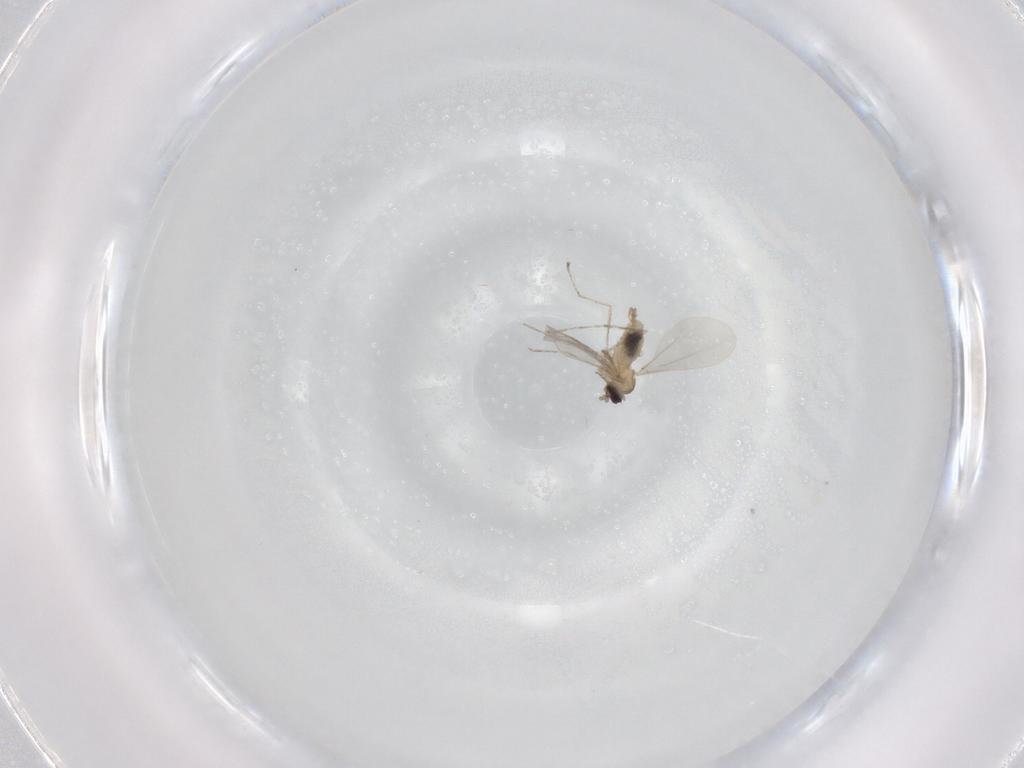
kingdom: Animalia
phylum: Arthropoda
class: Insecta
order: Diptera
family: Cecidomyiidae
